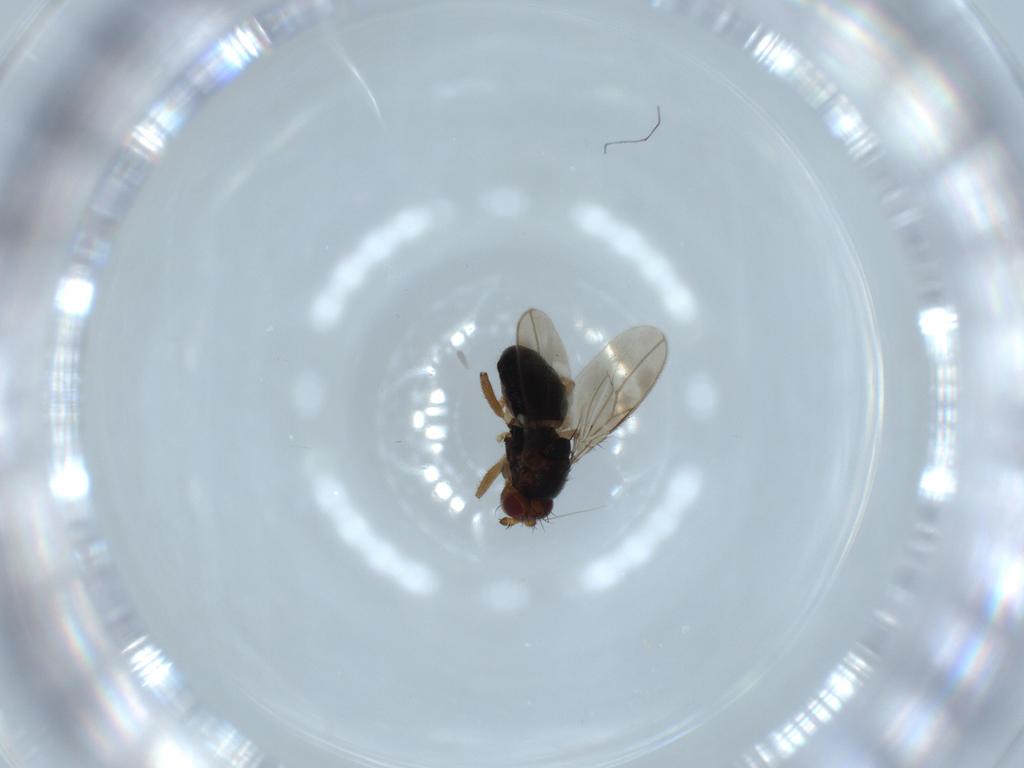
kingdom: Animalia
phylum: Arthropoda
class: Insecta
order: Diptera
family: Sphaeroceridae
